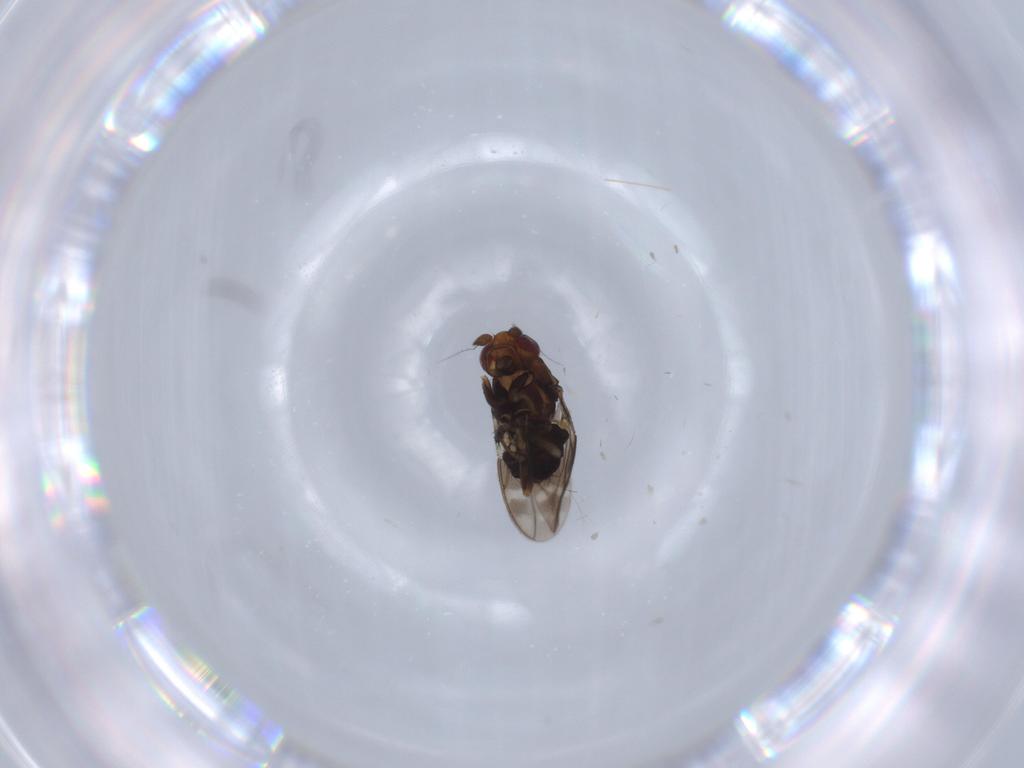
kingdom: Animalia
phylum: Arthropoda
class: Insecta
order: Diptera
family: Sphaeroceridae
